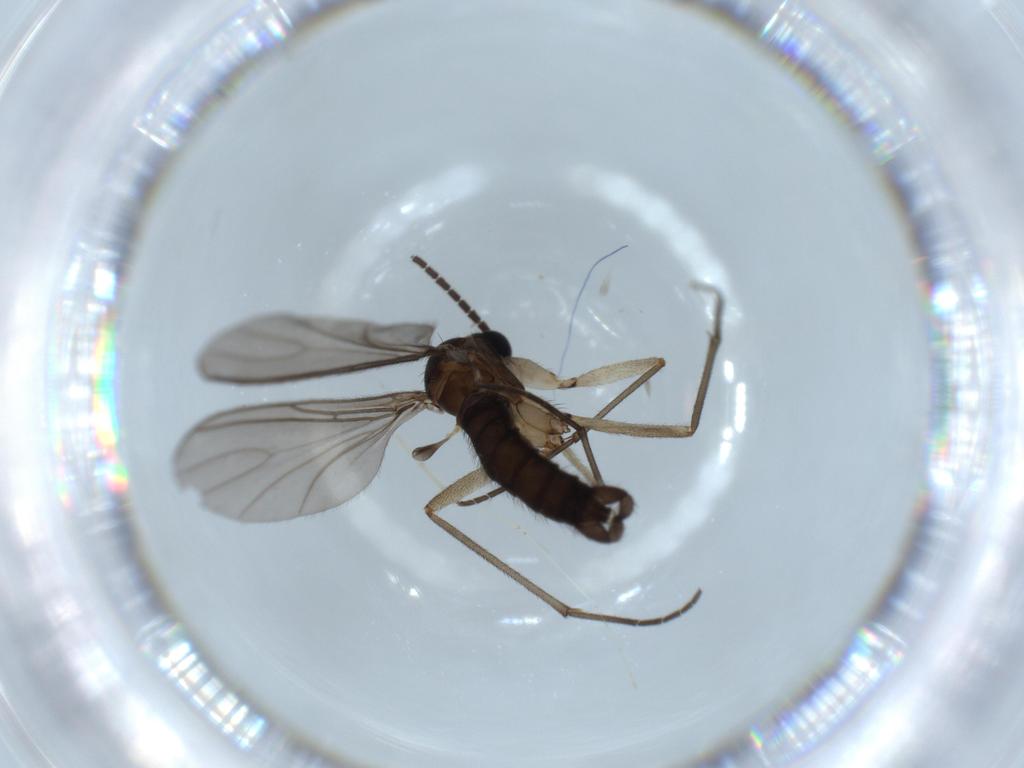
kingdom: Animalia
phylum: Arthropoda
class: Insecta
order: Diptera
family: Sciaridae
